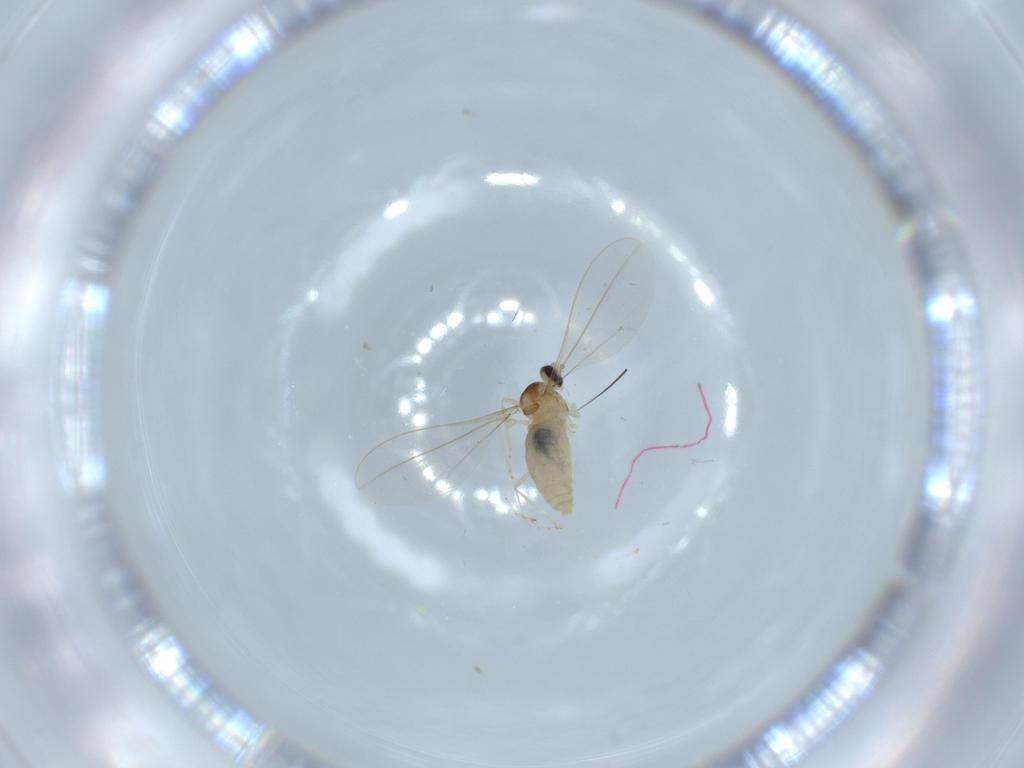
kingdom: Animalia
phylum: Arthropoda
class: Insecta
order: Diptera
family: Cecidomyiidae
